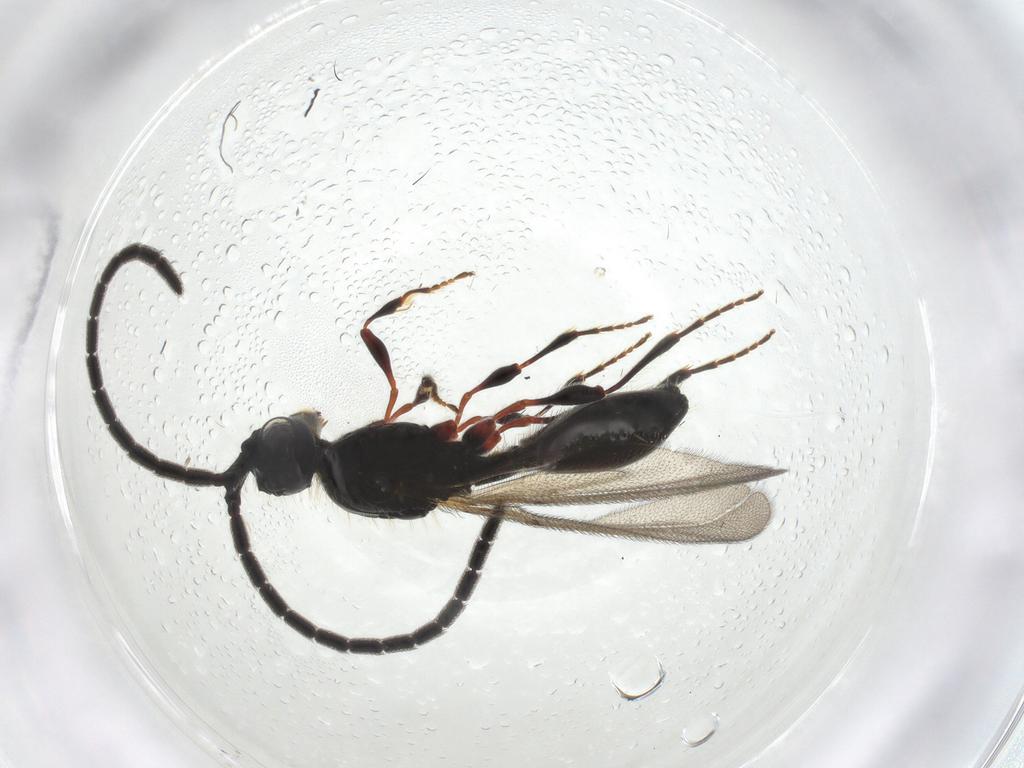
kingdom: Animalia
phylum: Arthropoda
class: Insecta
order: Hymenoptera
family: Diapriidae
